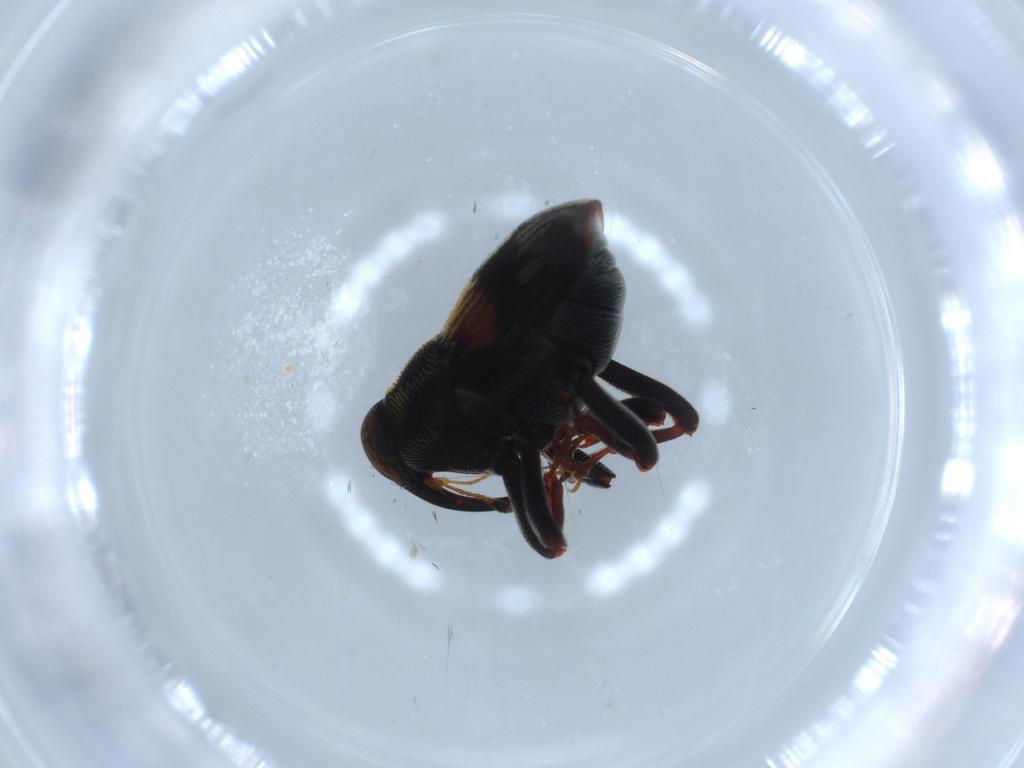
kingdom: Animalia
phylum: Arthropoda
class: Insecta
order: Coleoptera
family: Curculionidae
